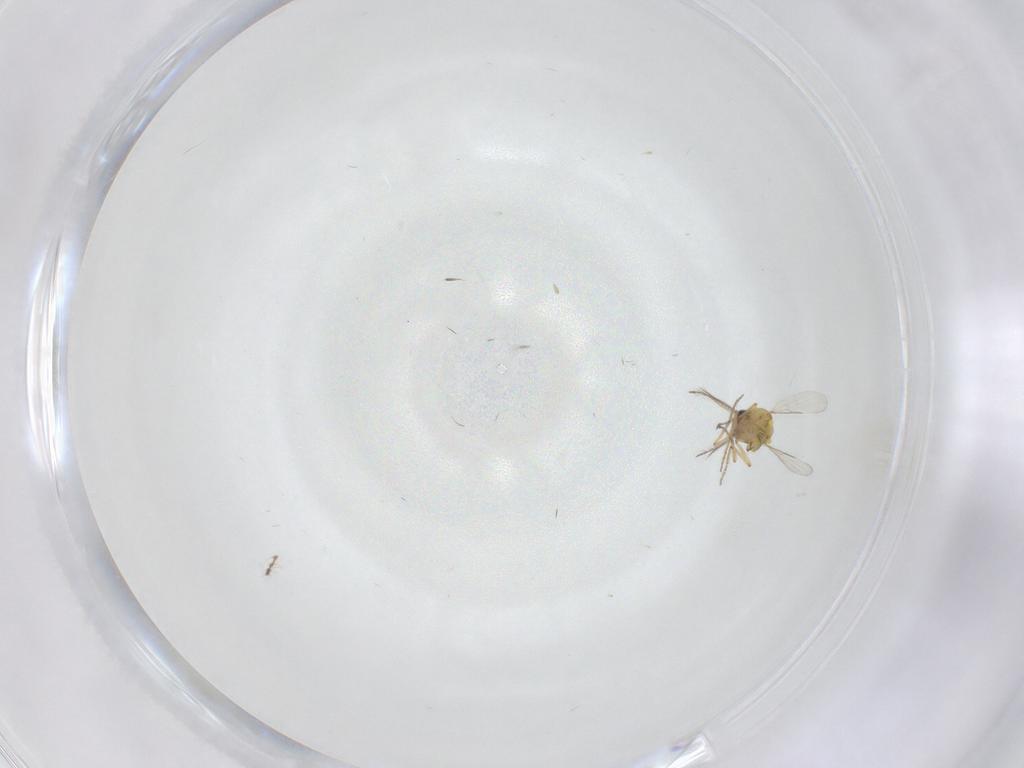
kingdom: Animalia
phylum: Arthropoda
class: Insecta
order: Diptera
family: Ceratopogonidae
